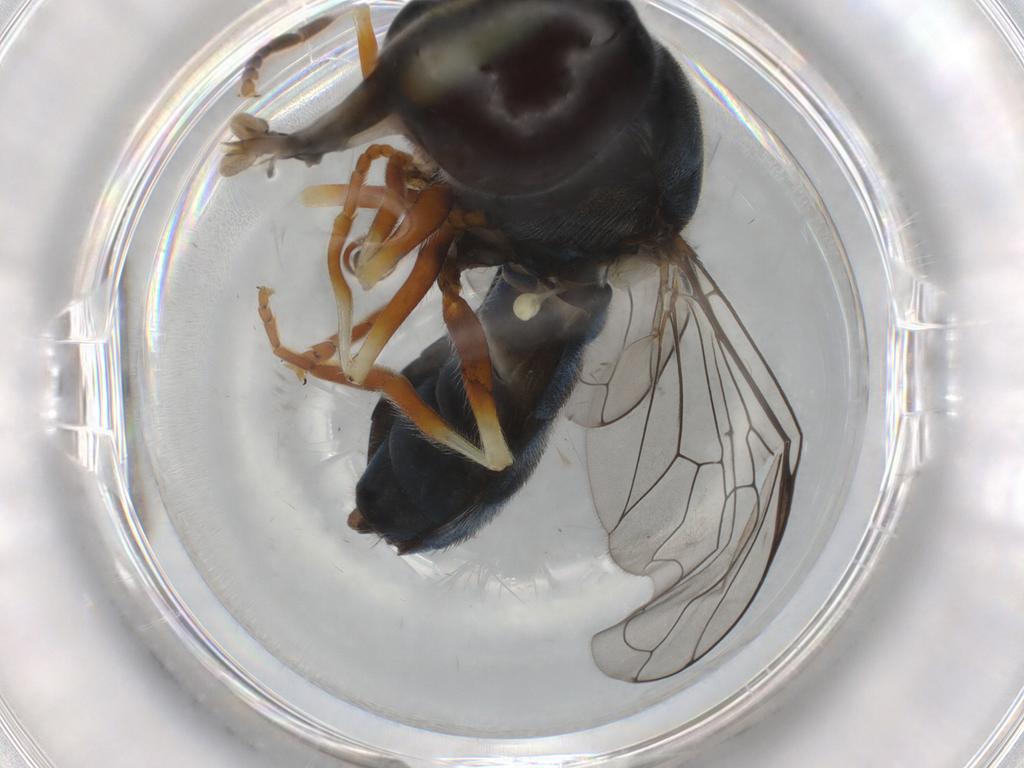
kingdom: Animalia
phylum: Arthropoda
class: Insecta
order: Diptera
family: Syrphidae
